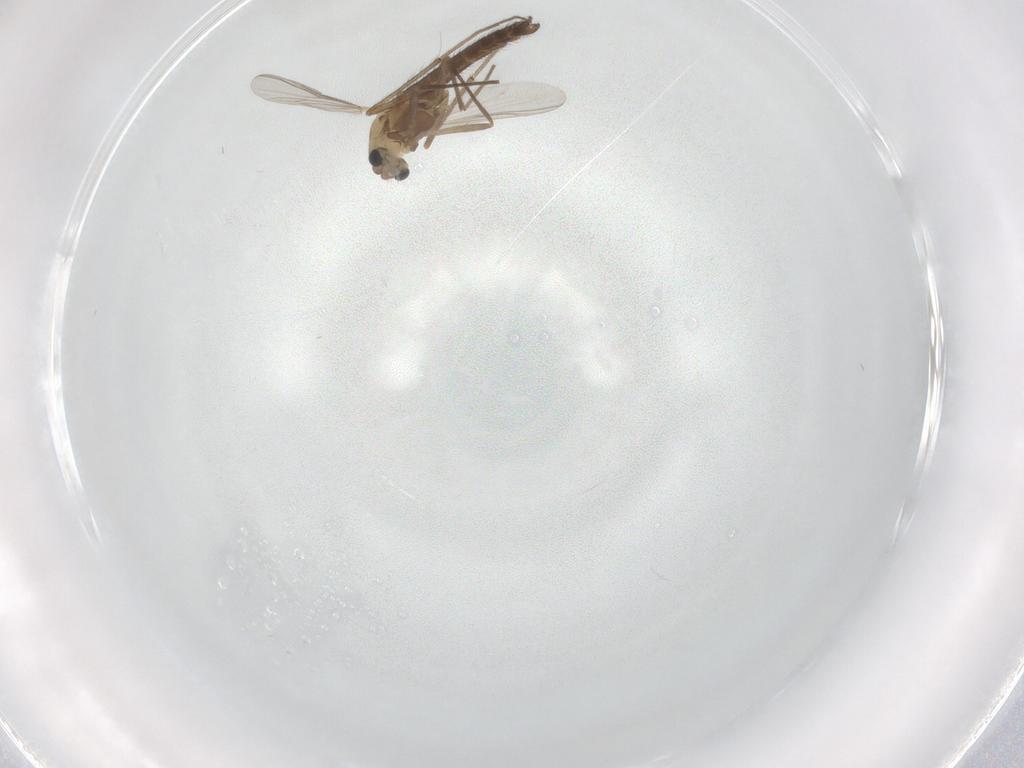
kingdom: Animalia
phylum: Arthropoda
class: Insecta
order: Diptera
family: Chironomidae
